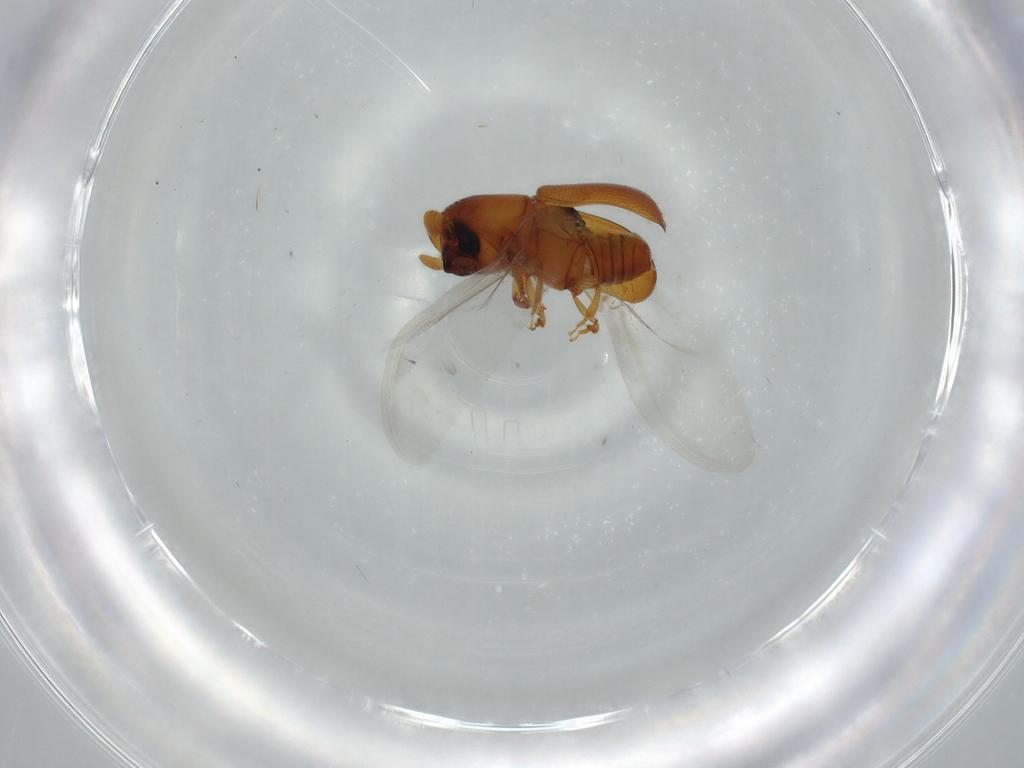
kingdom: Animalia
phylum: Arthropoda
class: Insecta
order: Coleoptera
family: Curculionidae
